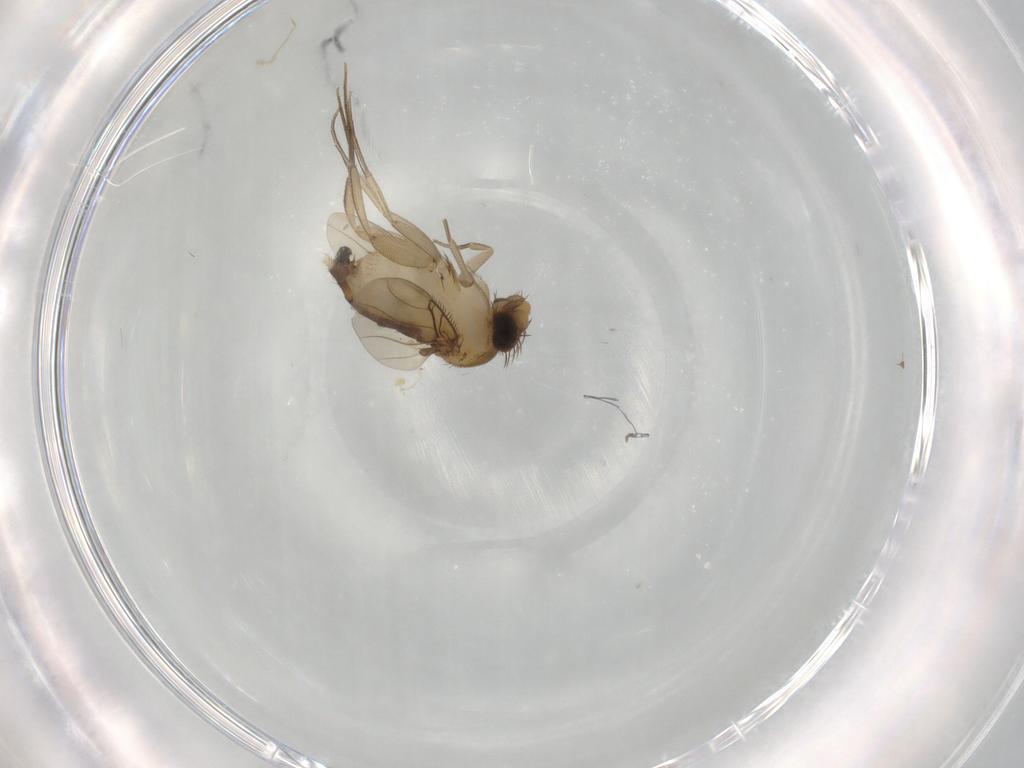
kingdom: Animalia
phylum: Arthropoda
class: Insecta
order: Diptera
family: Phoridae
